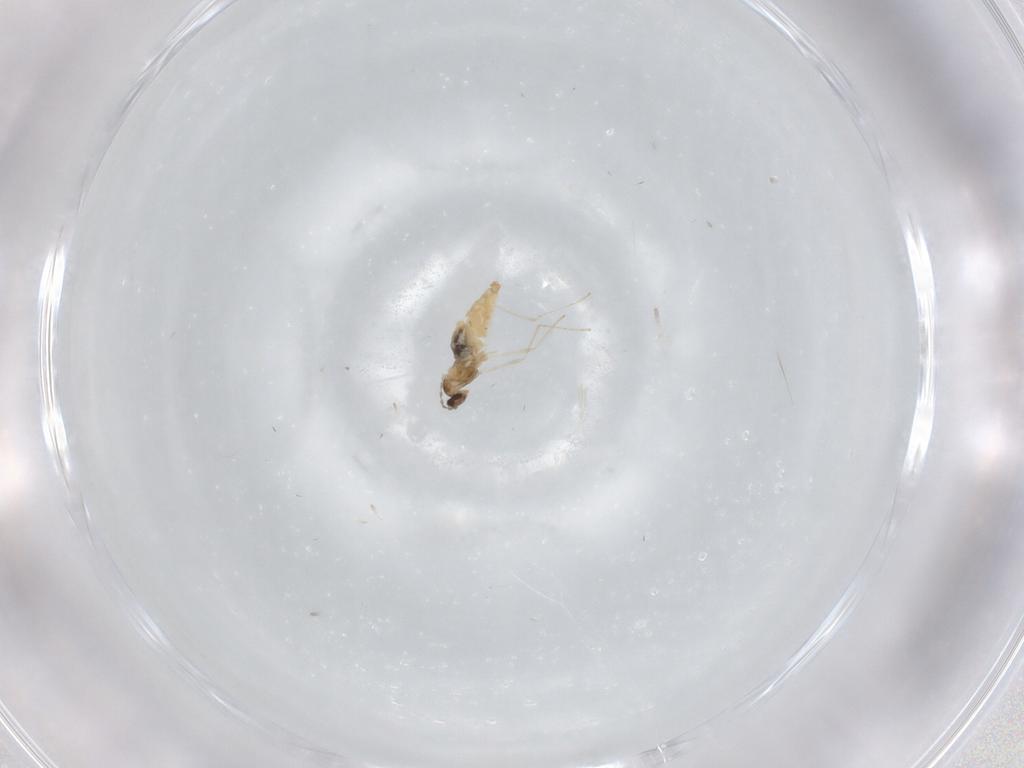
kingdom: Animalia
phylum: Arthropoda
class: Insecta
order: Diptera
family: Cecidomyiidae
